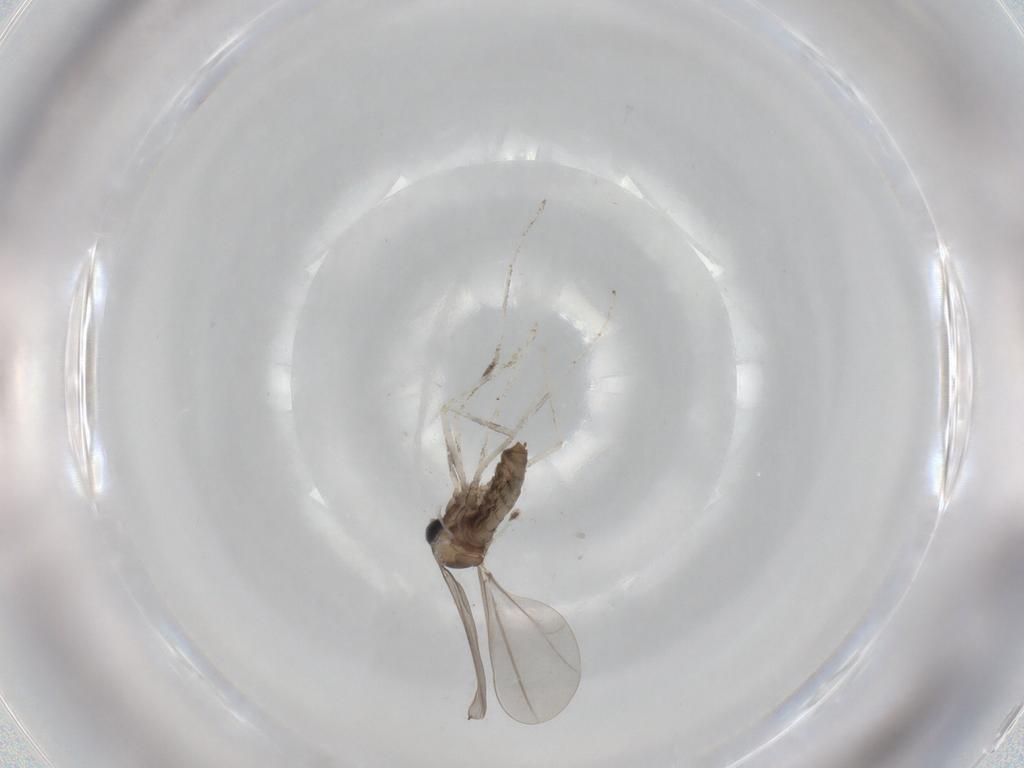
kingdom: Animalia
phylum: Arthropoda
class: Insecta
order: Diptera
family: Cecidomyiidae
